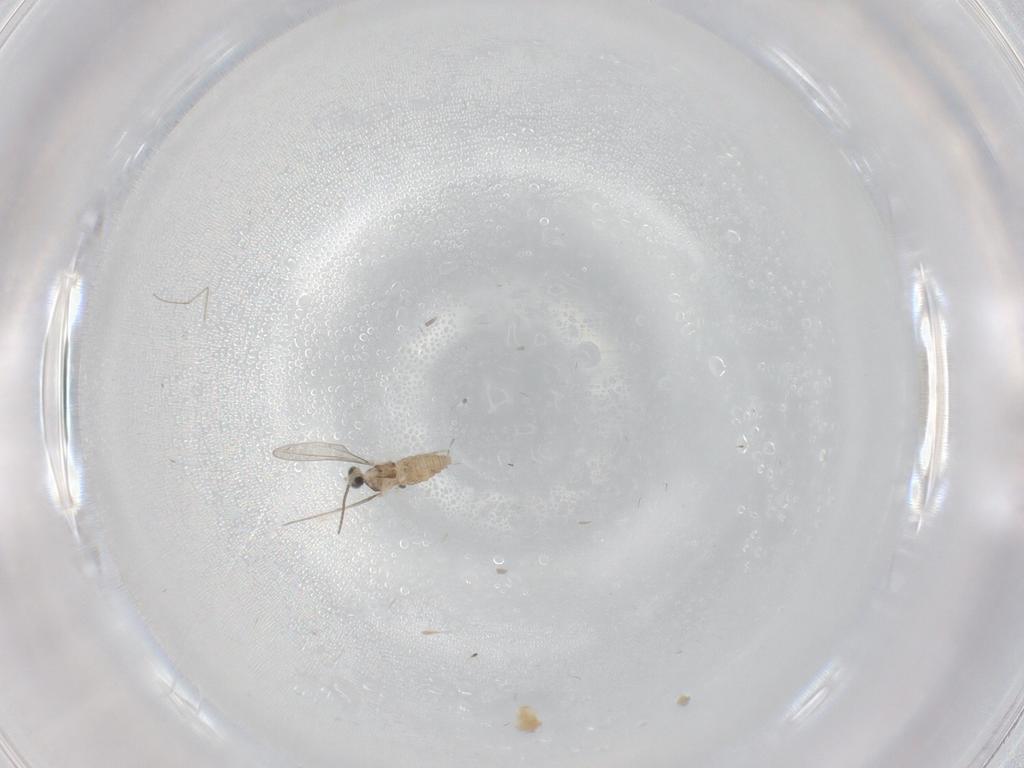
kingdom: Animalia
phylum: Arthropoda
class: Insecta
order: Diptera
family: Cecidomyiidae
